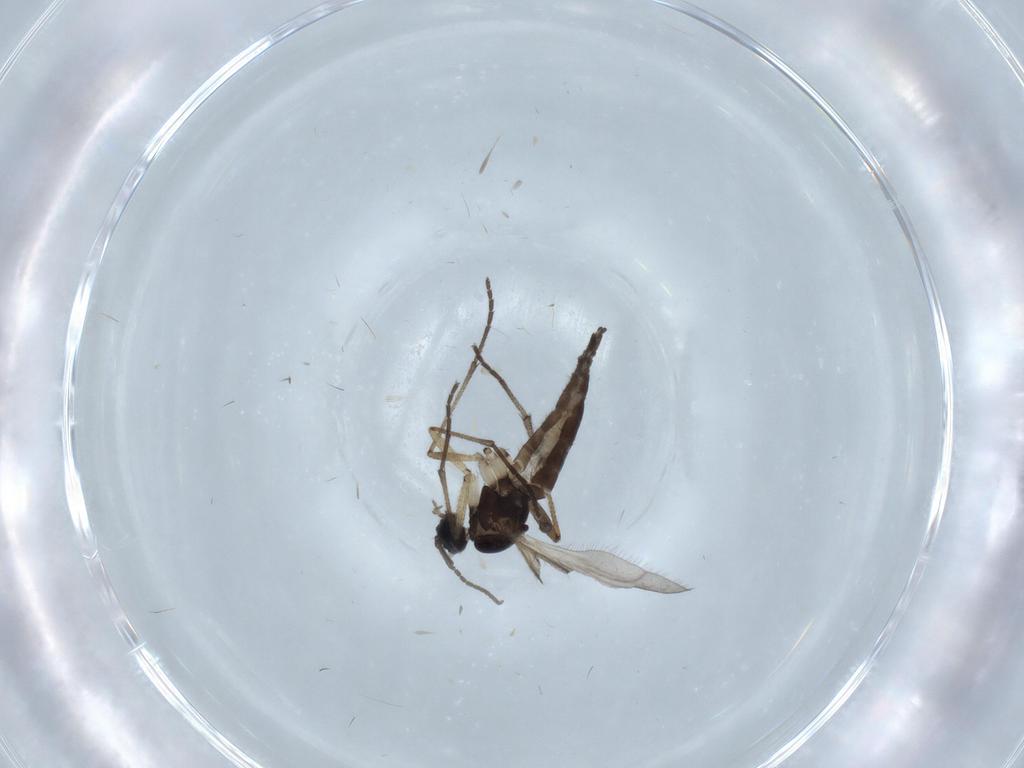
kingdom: Animalia
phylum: Arthropoda
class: Insecta
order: Diptera
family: Sciaridae
